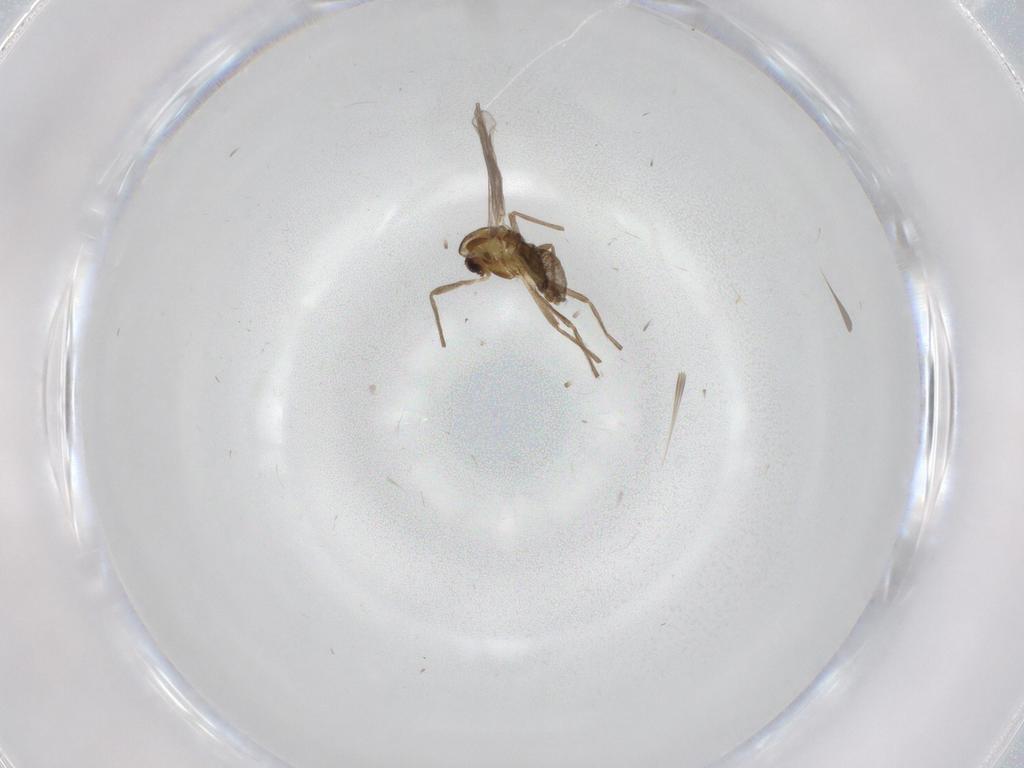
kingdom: Animalia
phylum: Arthropoda
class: Insecta
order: Diptera
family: Chironomidae
